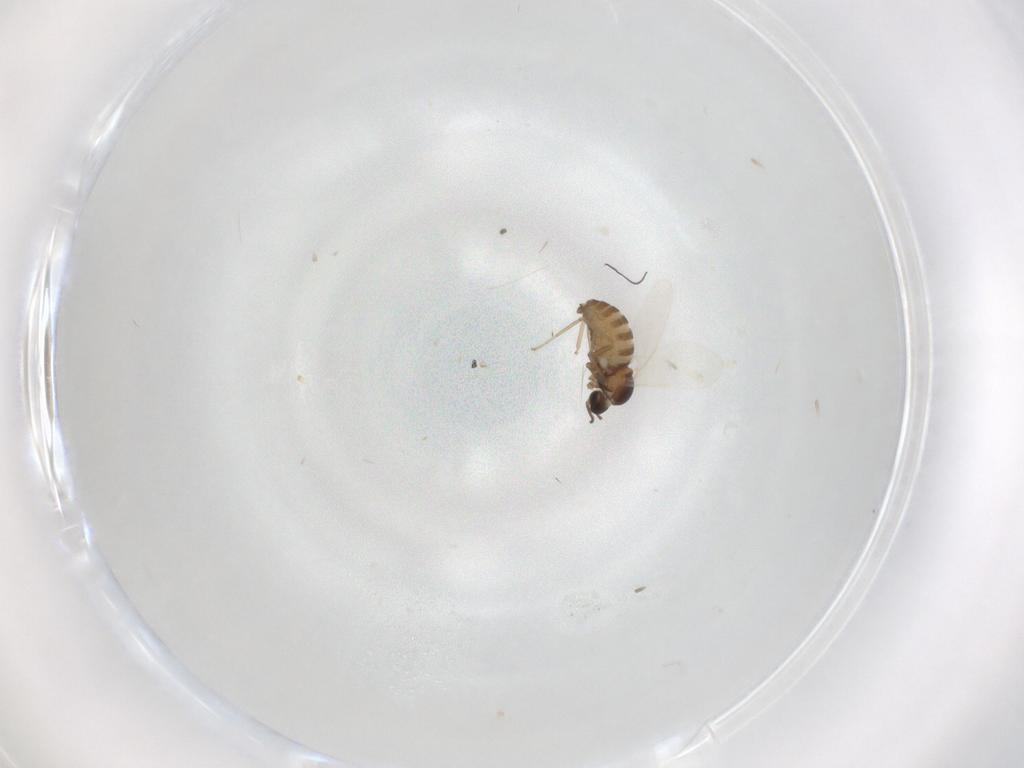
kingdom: Animalia
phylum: Arthropoda
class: Insecta
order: Diptera
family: Cecidomyiidae
